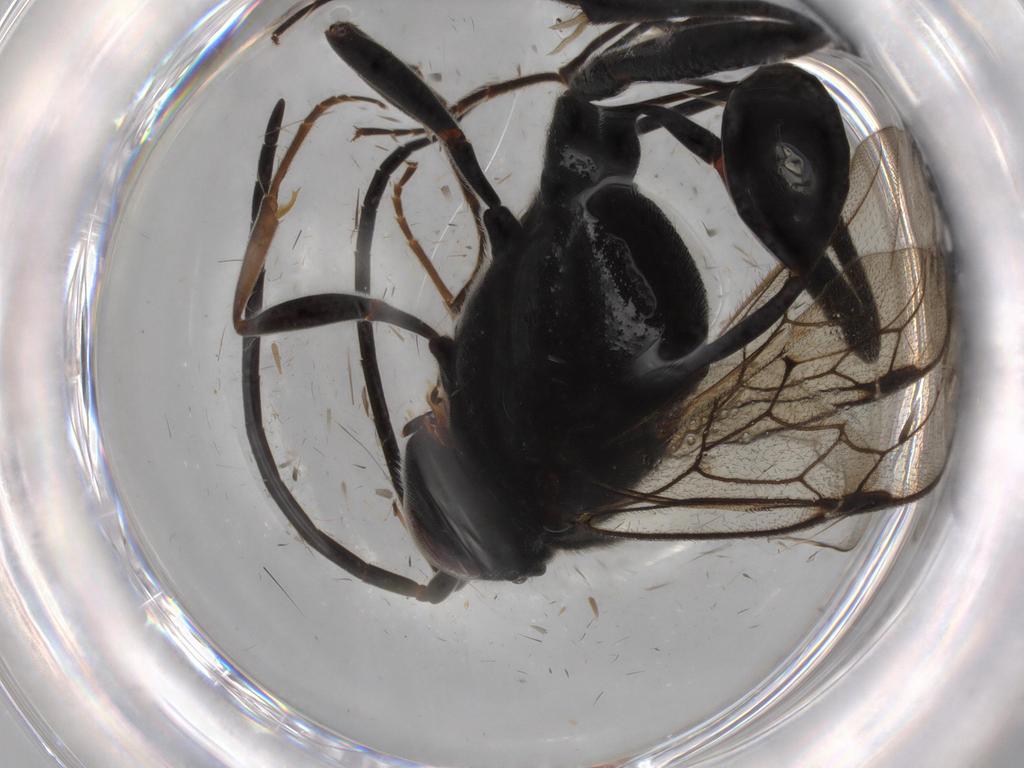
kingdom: Animalia
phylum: Arthropoda
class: Insecta
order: Hymenoptera
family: Evaniidae
